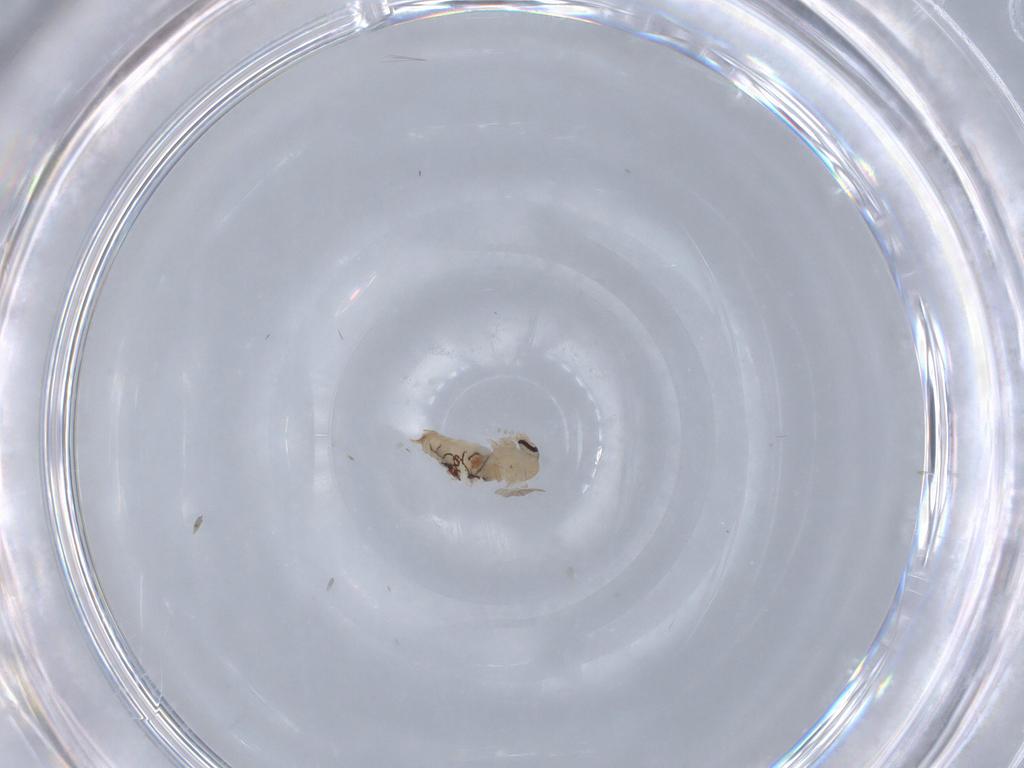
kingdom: Animalia
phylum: Arthropoda
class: Insecta
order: Diptera
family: Psychodidae
